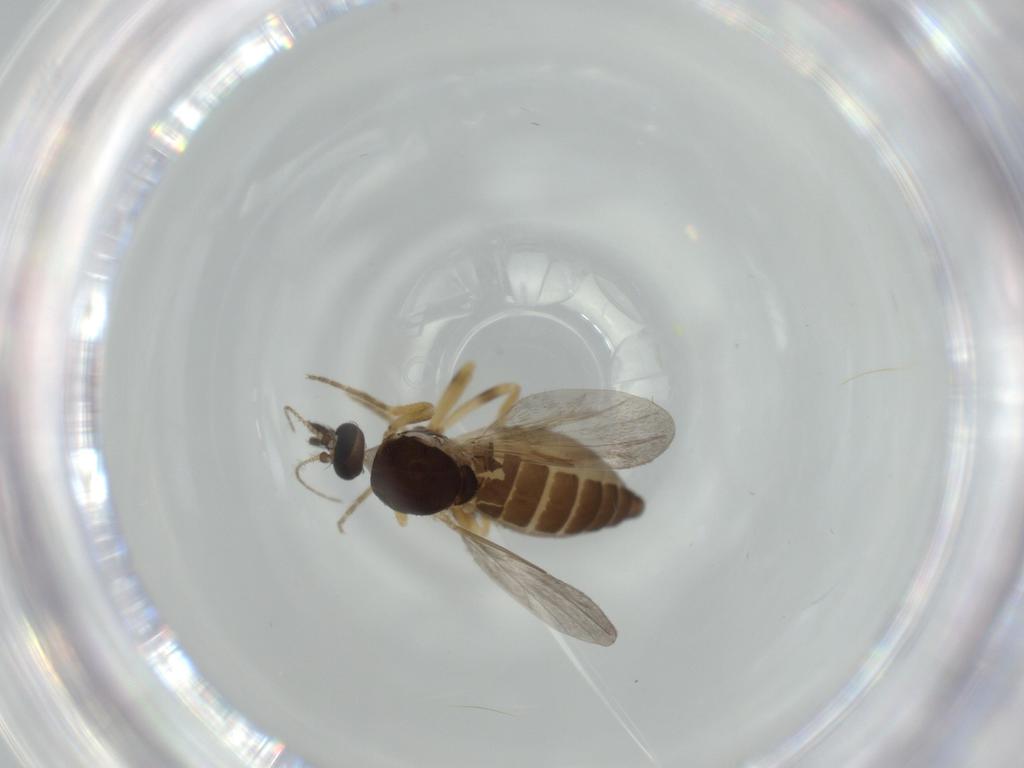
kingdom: Animalia
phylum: Arthropoda
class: Insecta
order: Diptera
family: Ceratopogonidae
